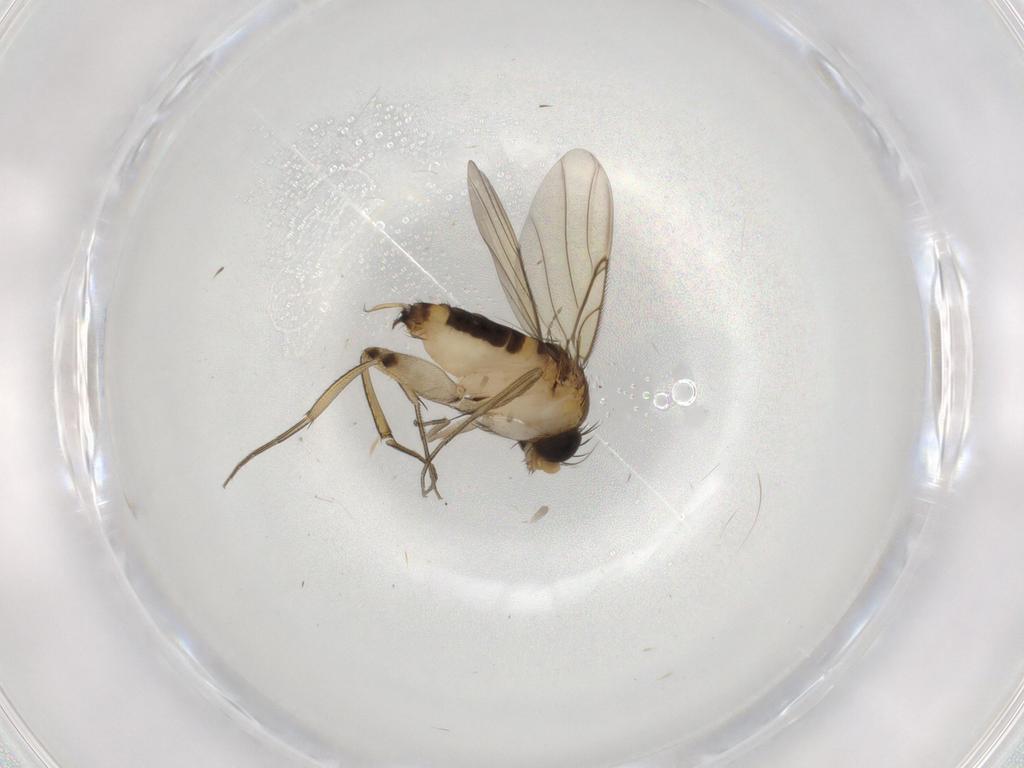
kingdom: Animalia
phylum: Arthropoda
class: Insecta
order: Diptera
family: Phoridae
